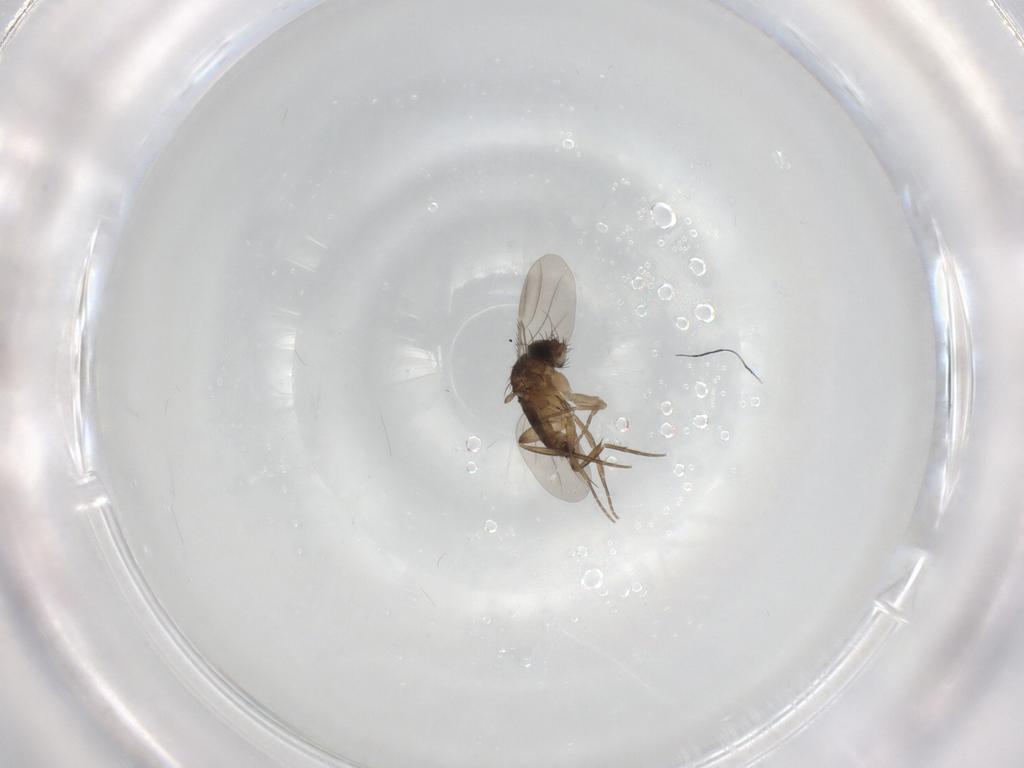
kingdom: Animalia
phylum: Arthropoda
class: Insecta
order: Diptera
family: Phoridae
